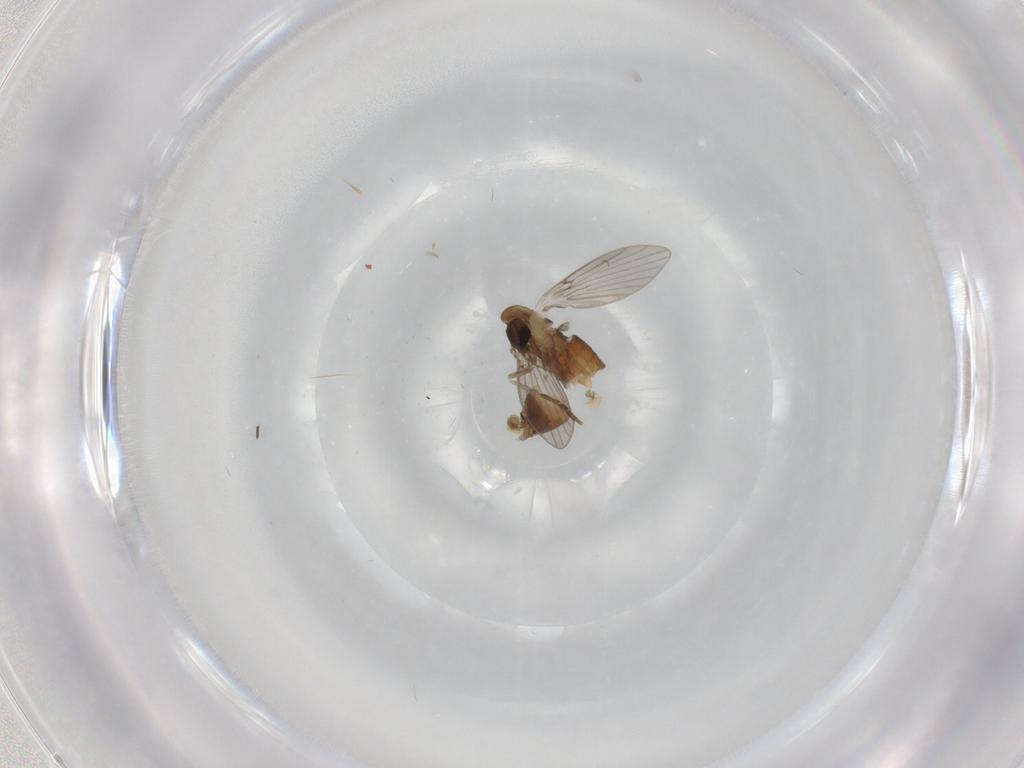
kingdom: Animalia
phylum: Arthropoda
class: Insecta
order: Diptera
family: Psychodidae
